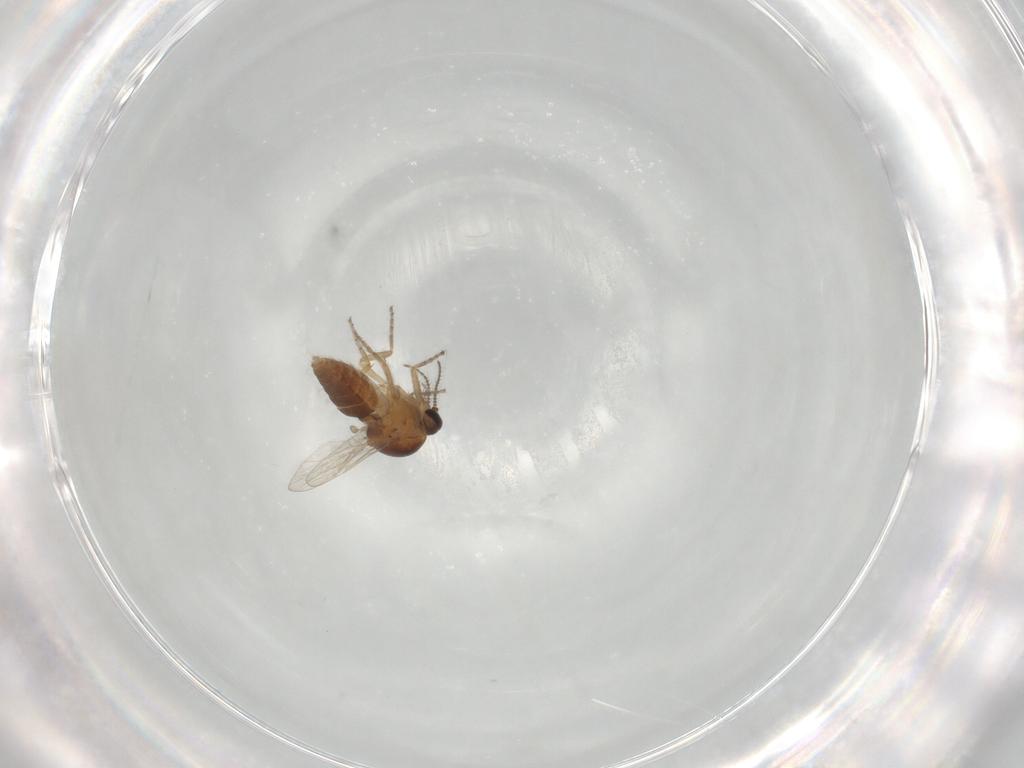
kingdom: Animalia
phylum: Arthropoda
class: Insecta
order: Diptera
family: Ceratopogonidae
